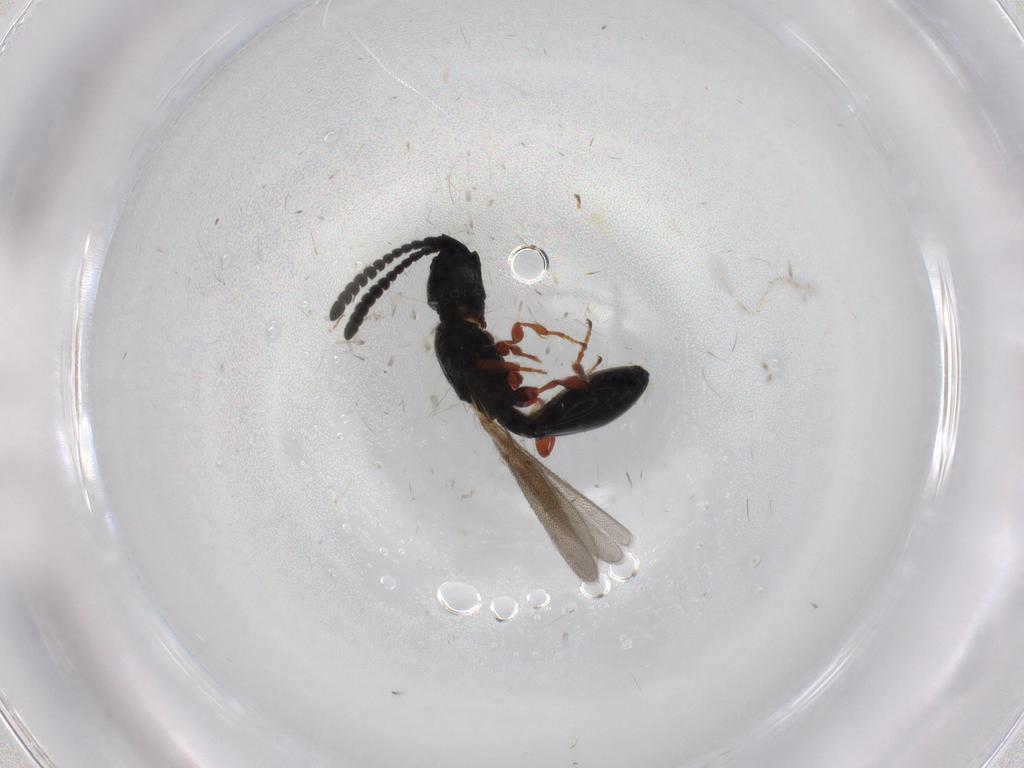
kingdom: Animalia
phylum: Arthropoda
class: Insecta
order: Hymenoptera
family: Diapriidae
